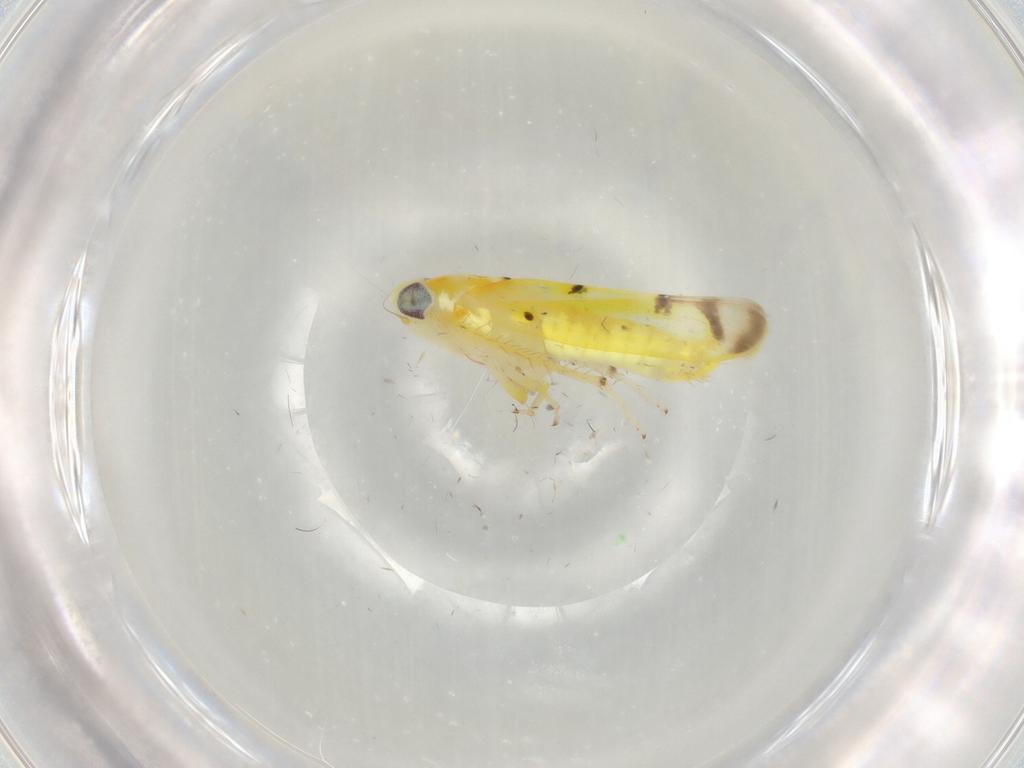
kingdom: Animalia
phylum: Arthropoda
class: Insecta
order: Hemiptera
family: Cicadellidae
